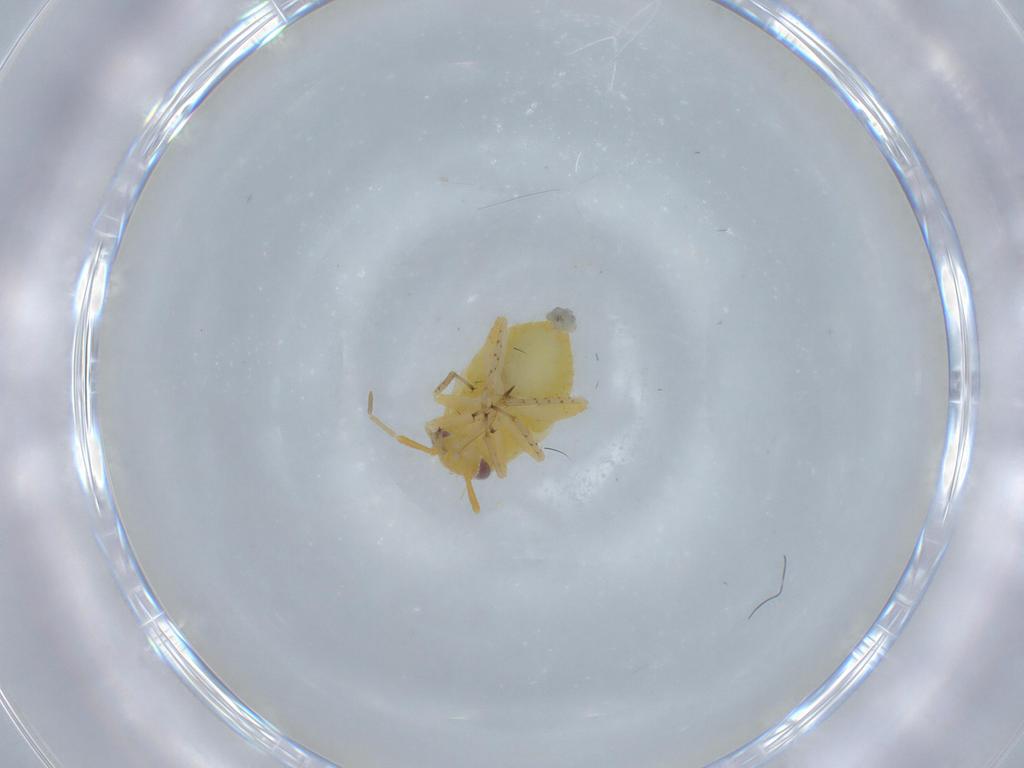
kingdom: Animalia
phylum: Arthropoda
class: Insecta
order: Hemiptera
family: Miridae
